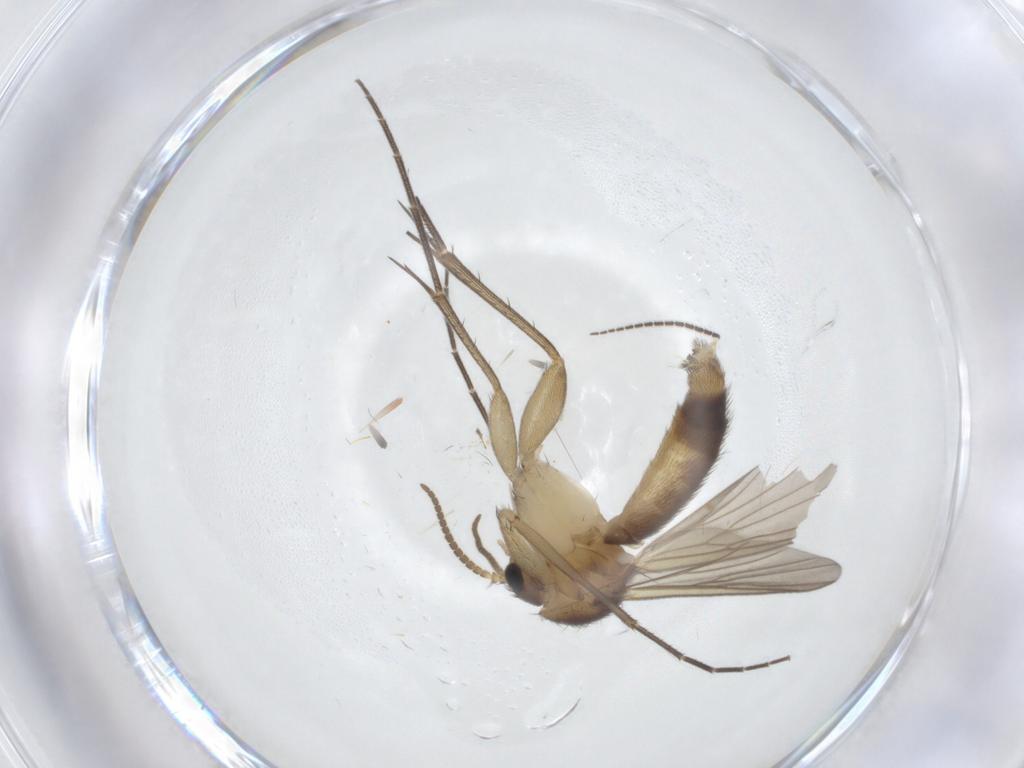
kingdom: Animalia
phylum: Arthropoda
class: Insecta
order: Diptera
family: Sciaridae
